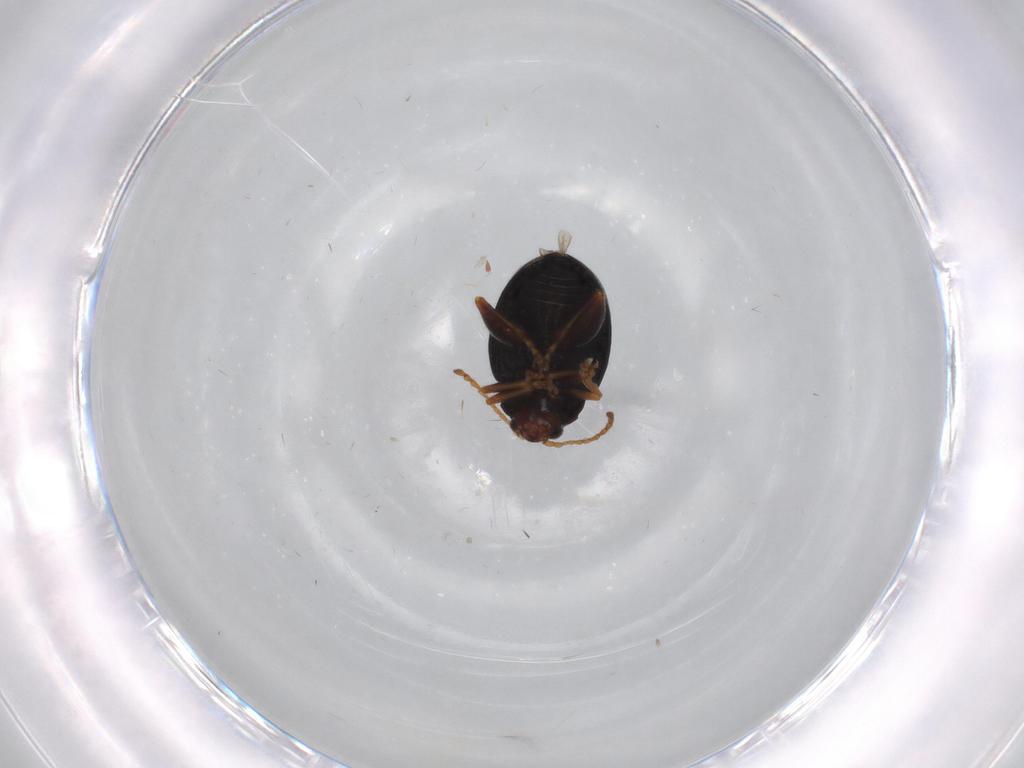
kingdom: Animalia
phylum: Arthropoda
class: Insecta
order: Coleoptera
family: Chrysomelidae
